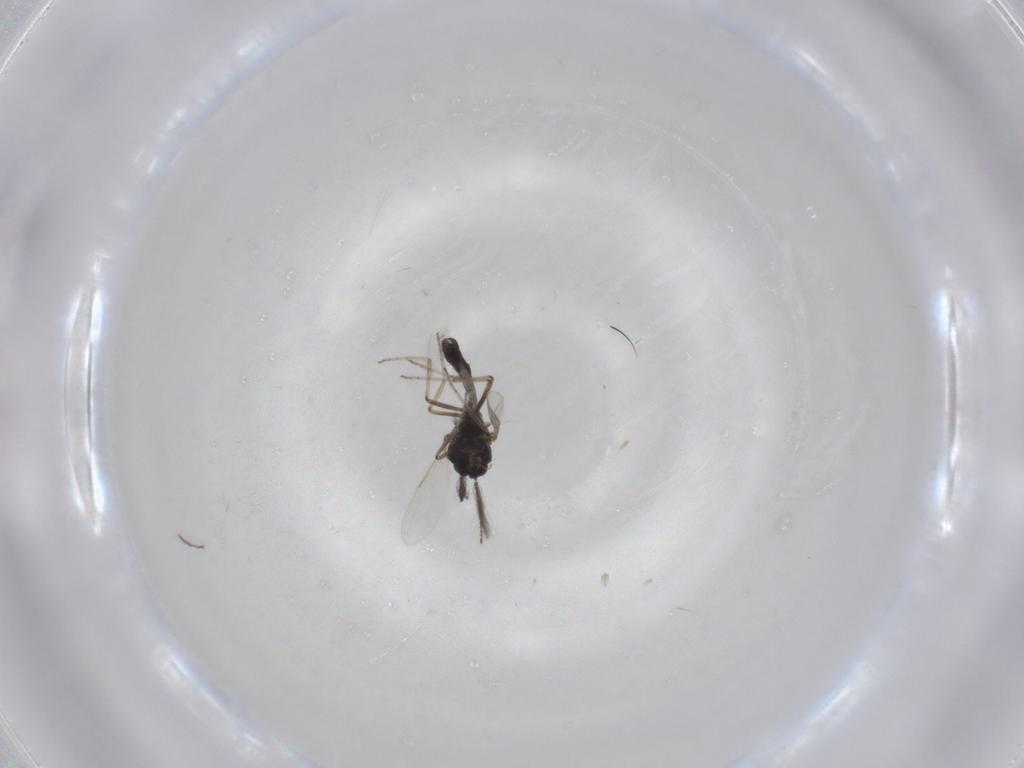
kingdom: Animalia
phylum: Arthropoda
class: Insecta
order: Diptera
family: Ceratopogonidae
